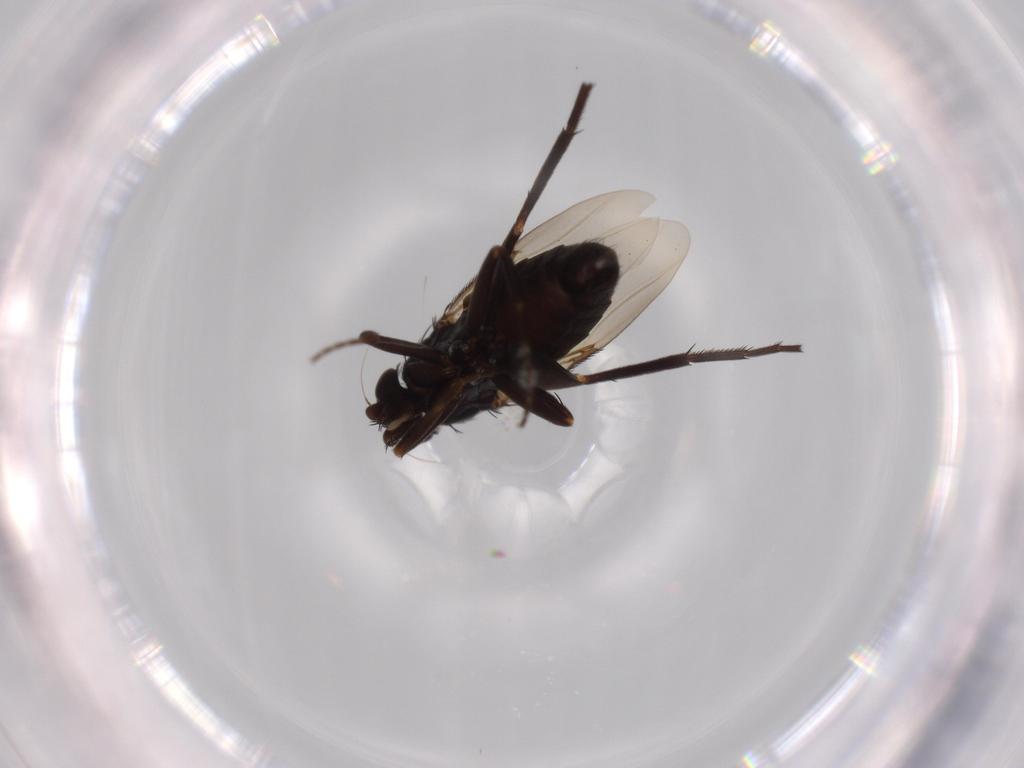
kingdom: Animalia
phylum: Arthropoda
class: Insecta
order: Diptera
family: Phoridae
